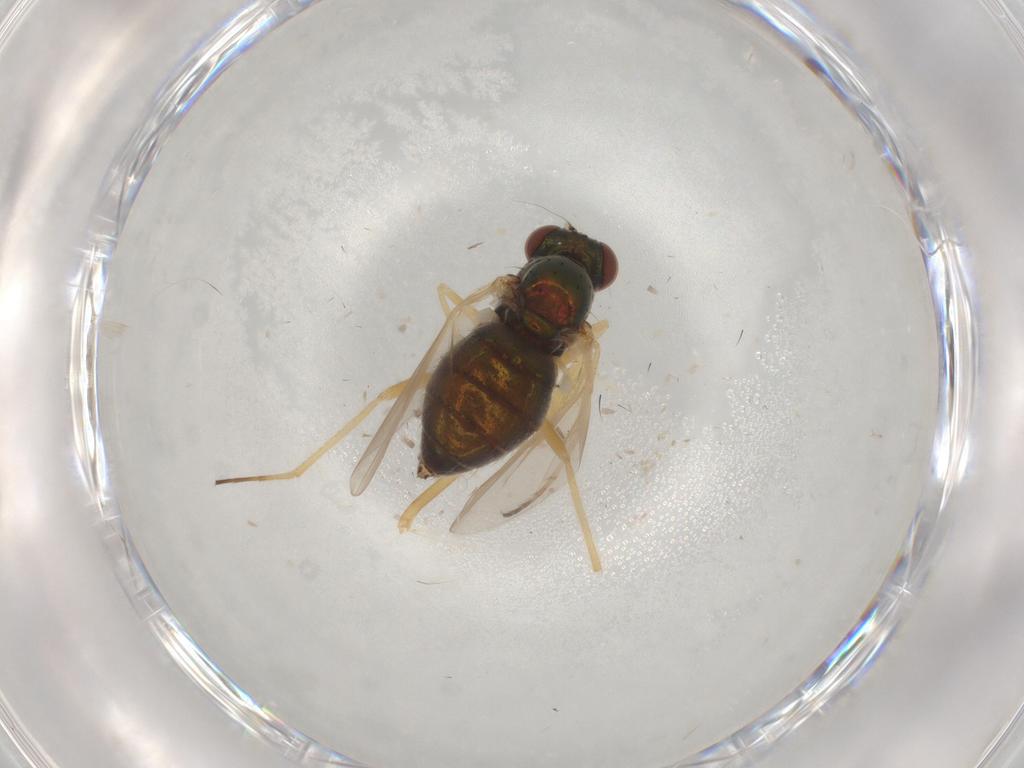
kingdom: Animalia
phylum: Arthropoda
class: Insecta
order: Diptera
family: Dolichopodidae
